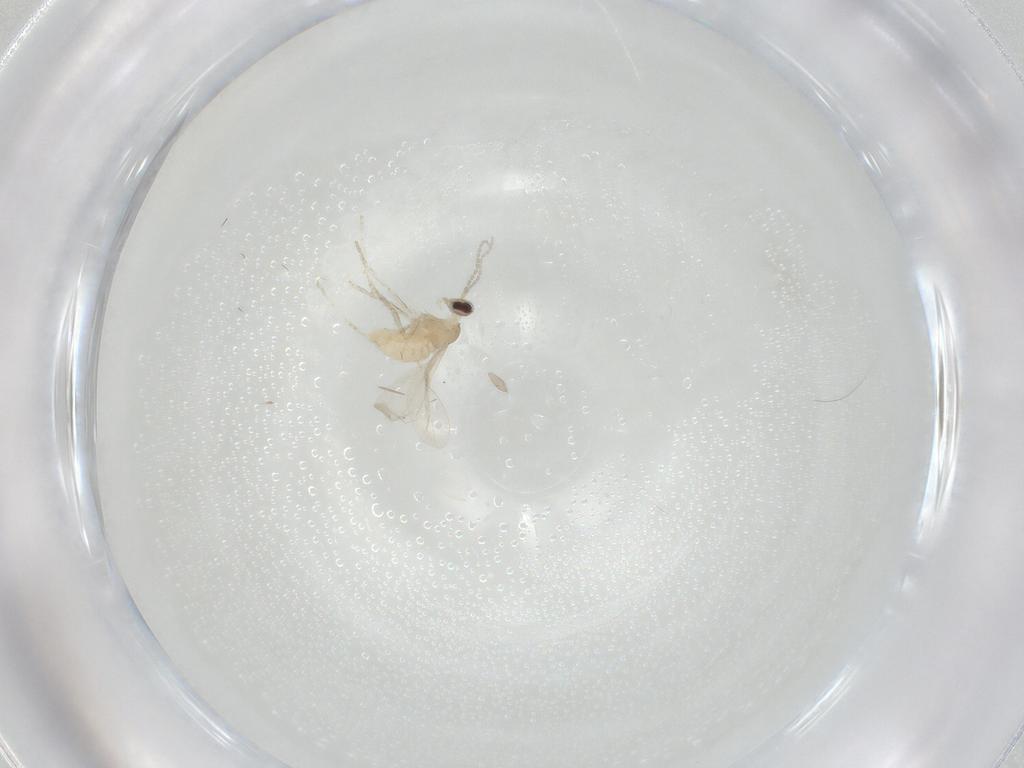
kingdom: Animalia
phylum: Arthropoda
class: Insecta
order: Diptera
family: Cecidomyiidae
